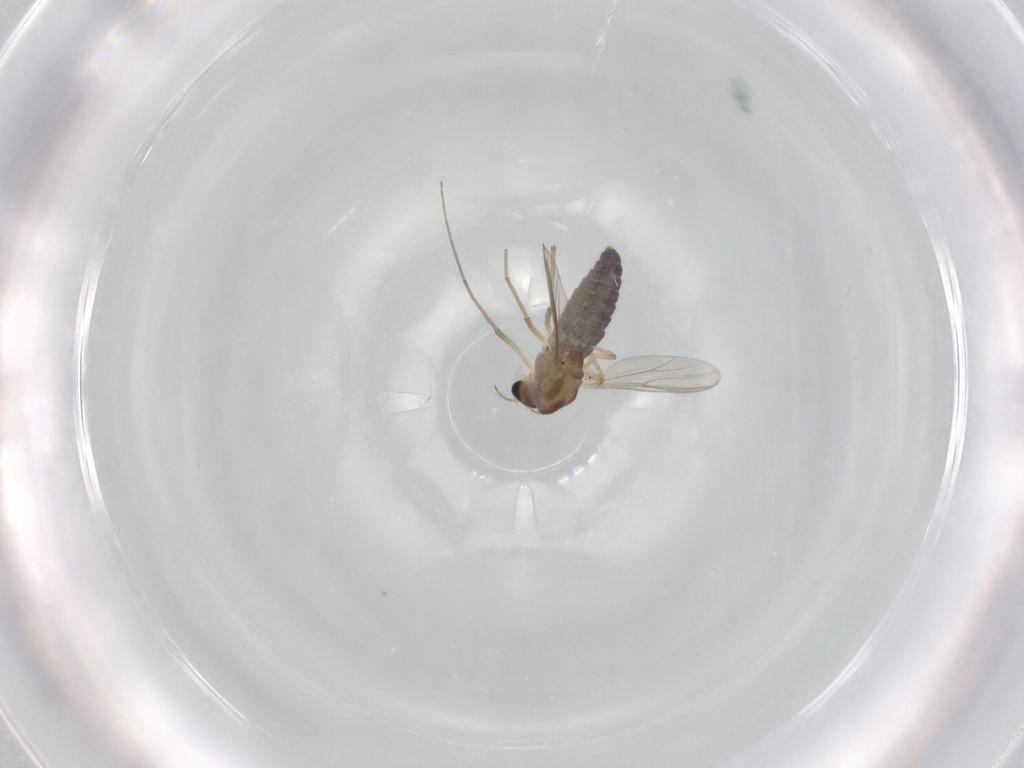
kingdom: Animalia
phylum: Arthropoda
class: Insecta
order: Diptera
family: Chironomidae
